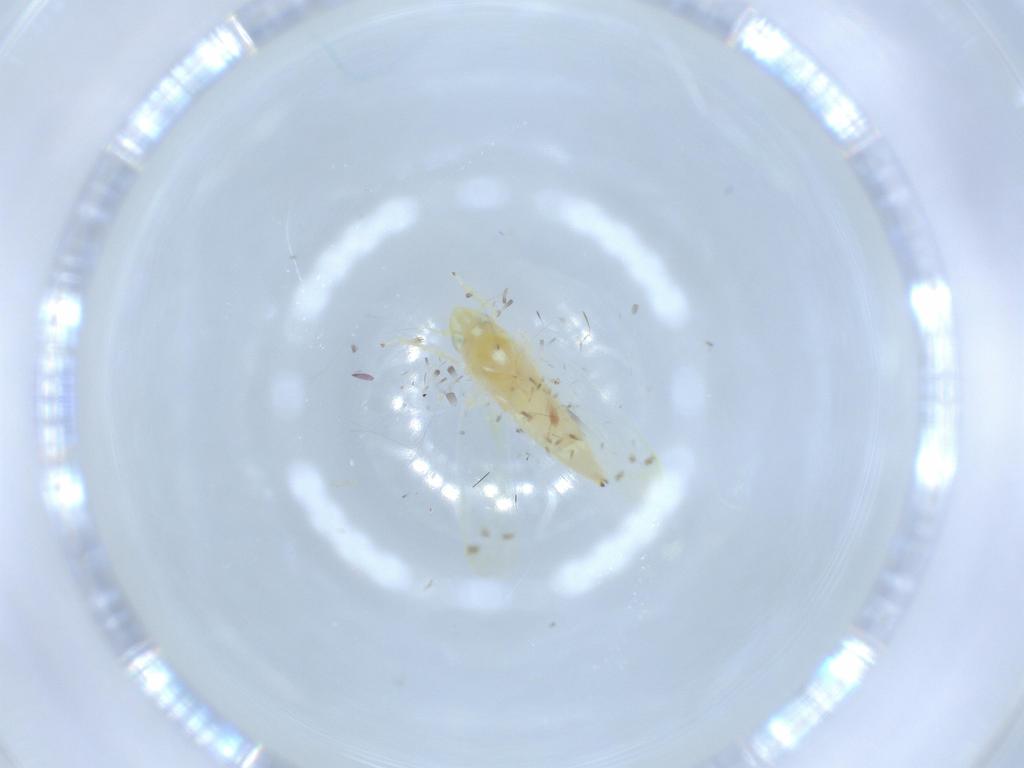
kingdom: Animalia
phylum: Arthropoda
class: Insecta
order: Hemiptera
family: Cicadellidae
